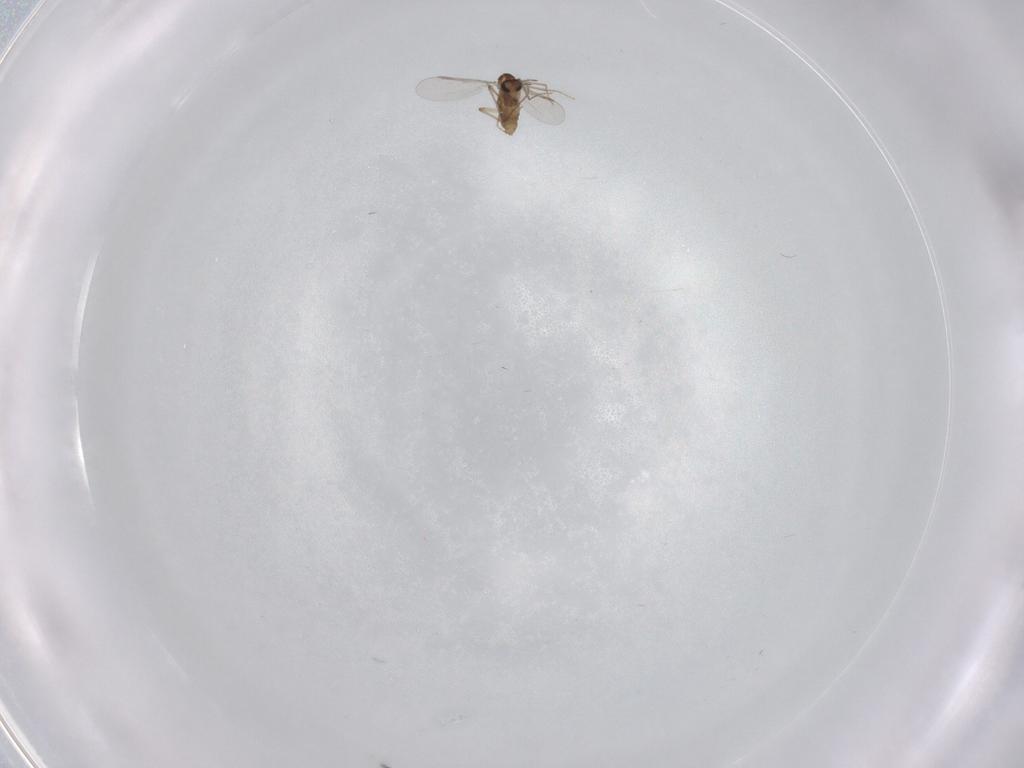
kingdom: Animalia
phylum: Arthropoda
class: Insecta
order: Diptera
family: Chironomidae
